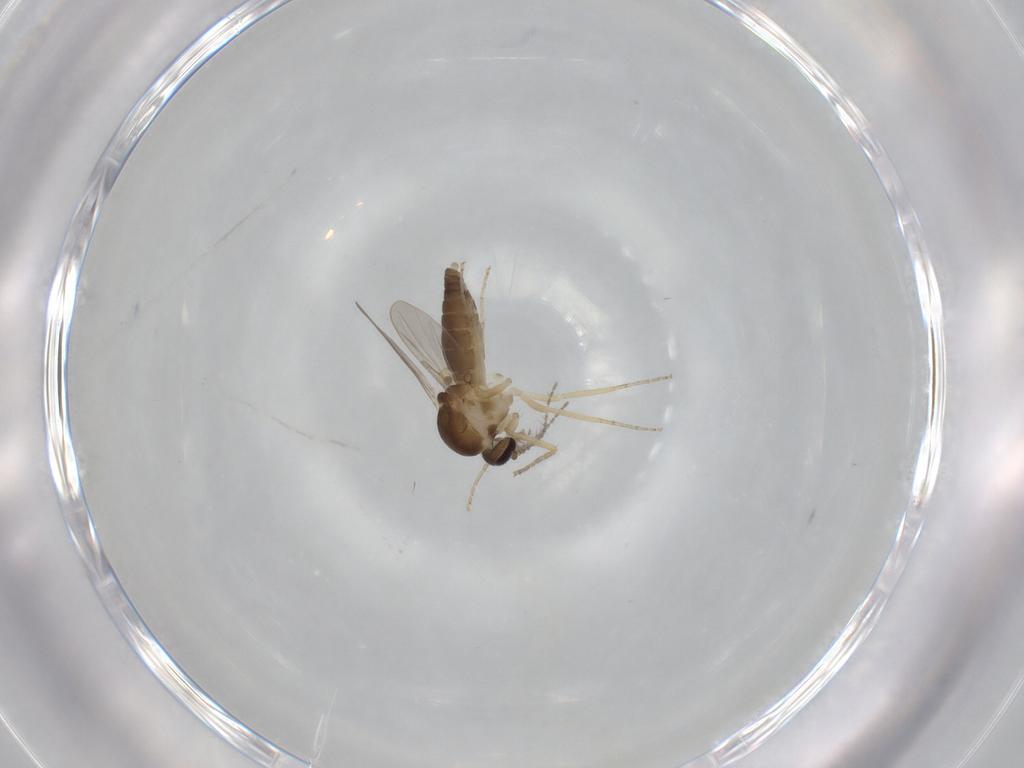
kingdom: Animalia
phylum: Arthropoda
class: Insecta
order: Diptera
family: Ceratopogonidae
